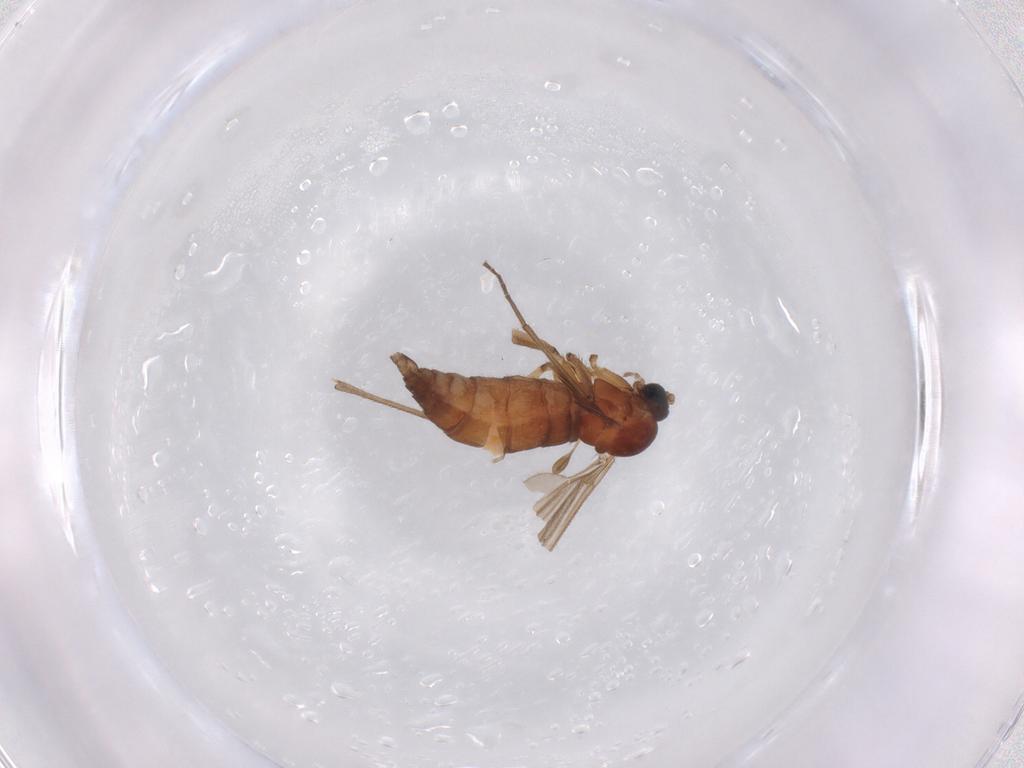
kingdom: Animalia
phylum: Arthropoda
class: Insecta
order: Diptera
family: Sciaridae
